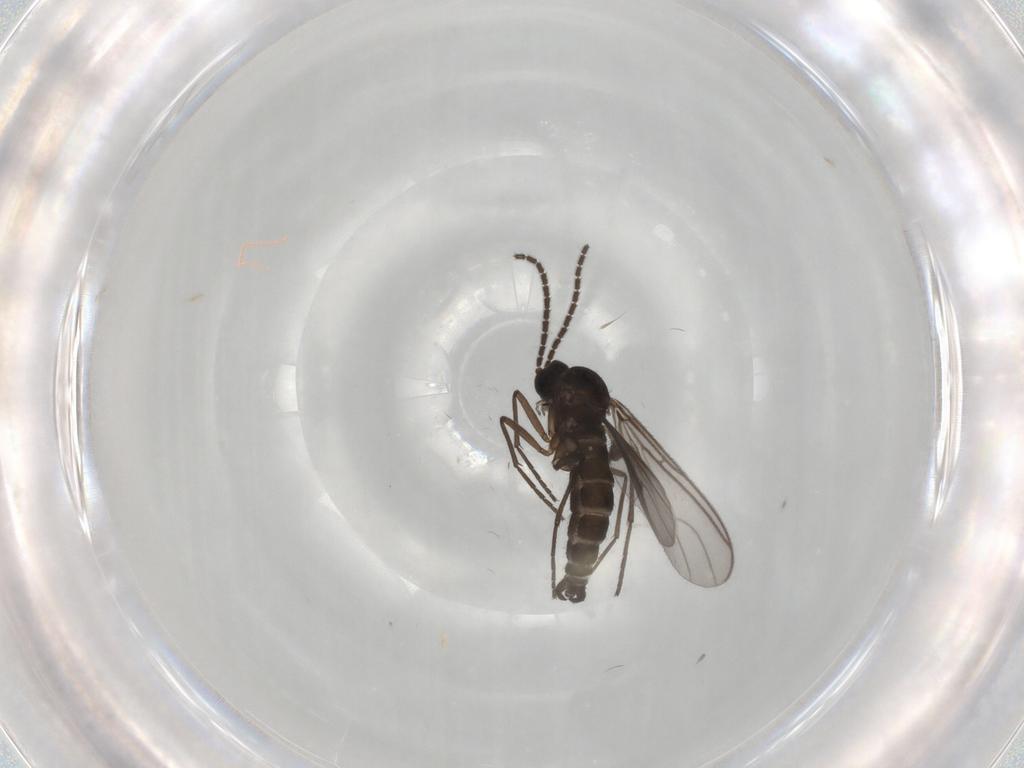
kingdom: Animalia
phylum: Arthropoda
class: Insecta
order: Diptera
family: Sciaridae
